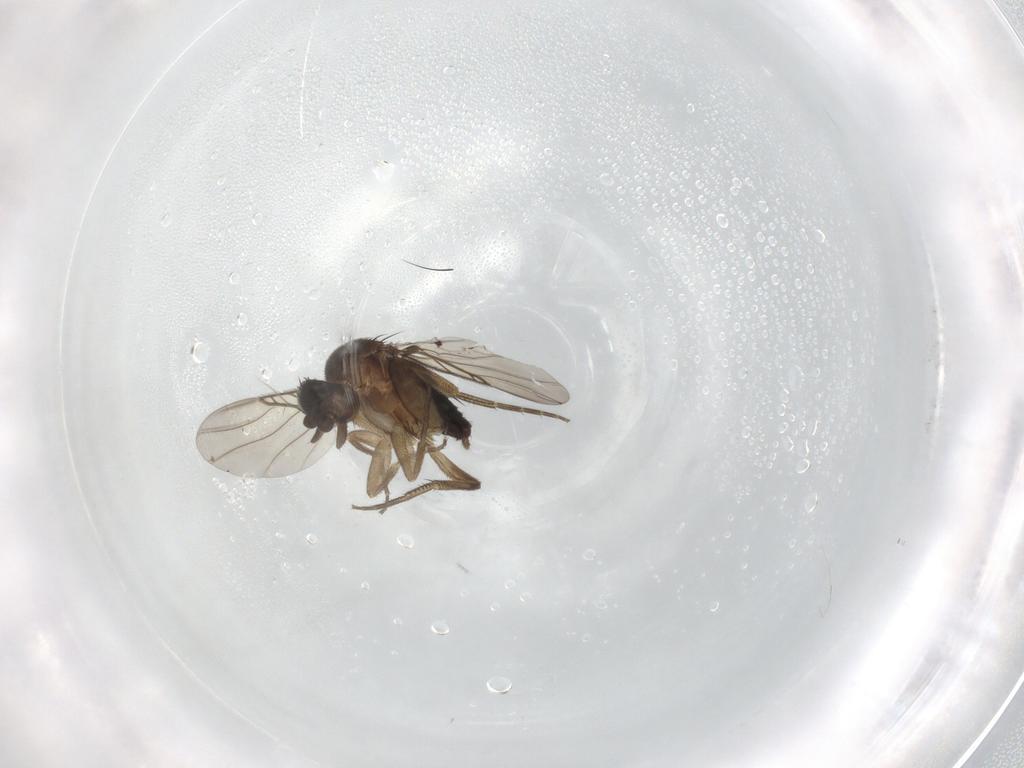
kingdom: Animalia
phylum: Arthropoda
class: Insecta
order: Diptera
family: Phoridae
